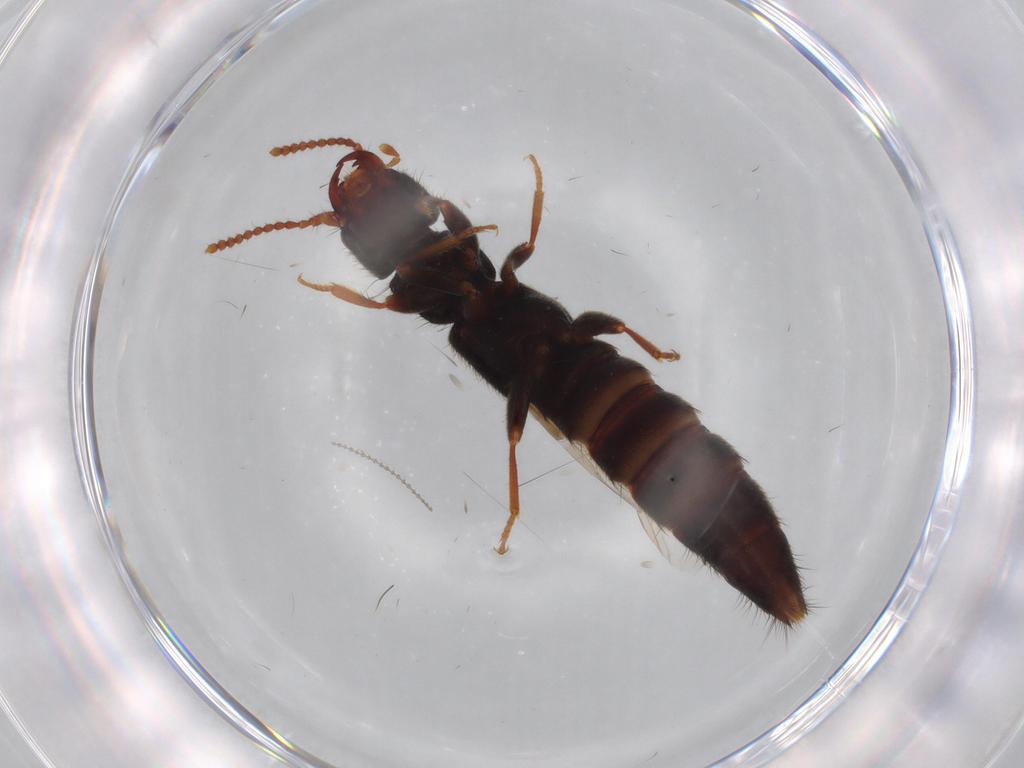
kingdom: Animalia
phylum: Arthropoda
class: Insecta
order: Coleoptera
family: Staphylinidae
